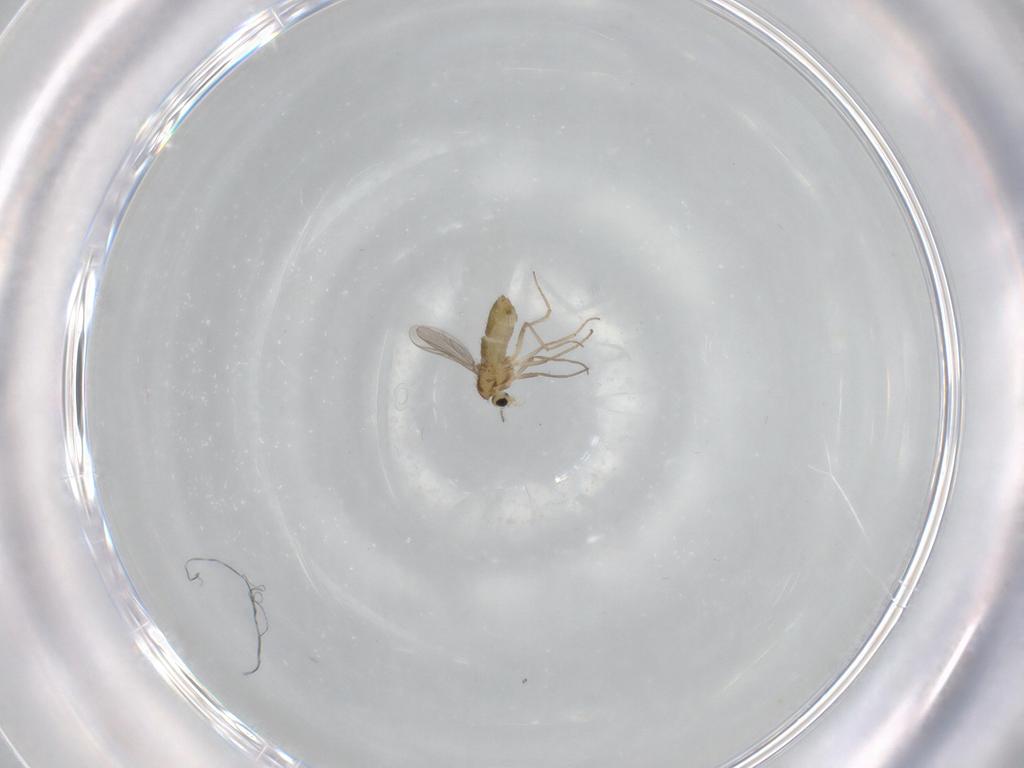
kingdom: Animalia
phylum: Arthropoda
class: Insecta
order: Diptera
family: Chironomidae
